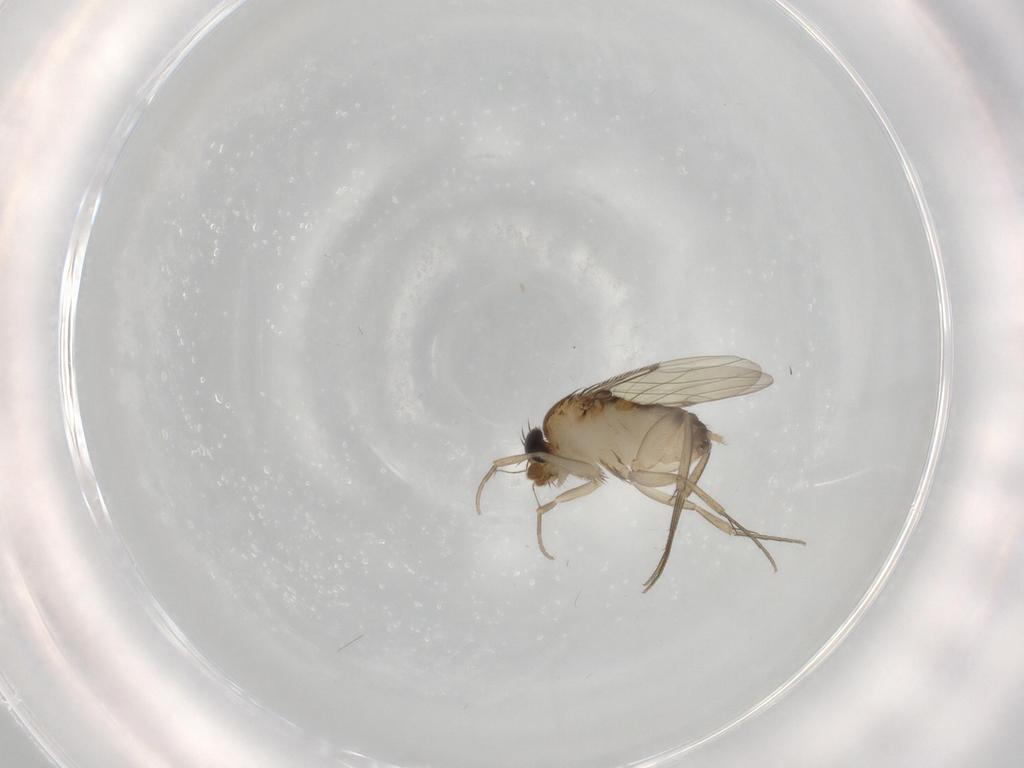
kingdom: Animalia
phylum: Arthropoda
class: Insecta
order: Diptera
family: Phoridae
